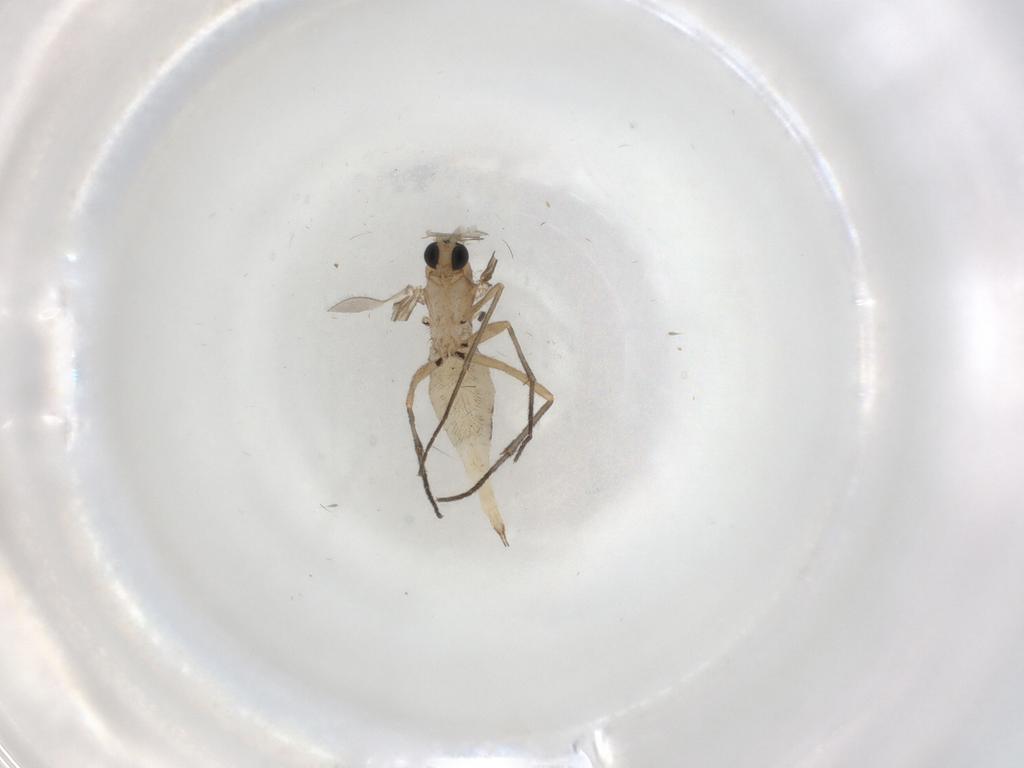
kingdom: Animalia
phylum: Arthropoda
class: Insecta
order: Diptera
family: Sciaridae
